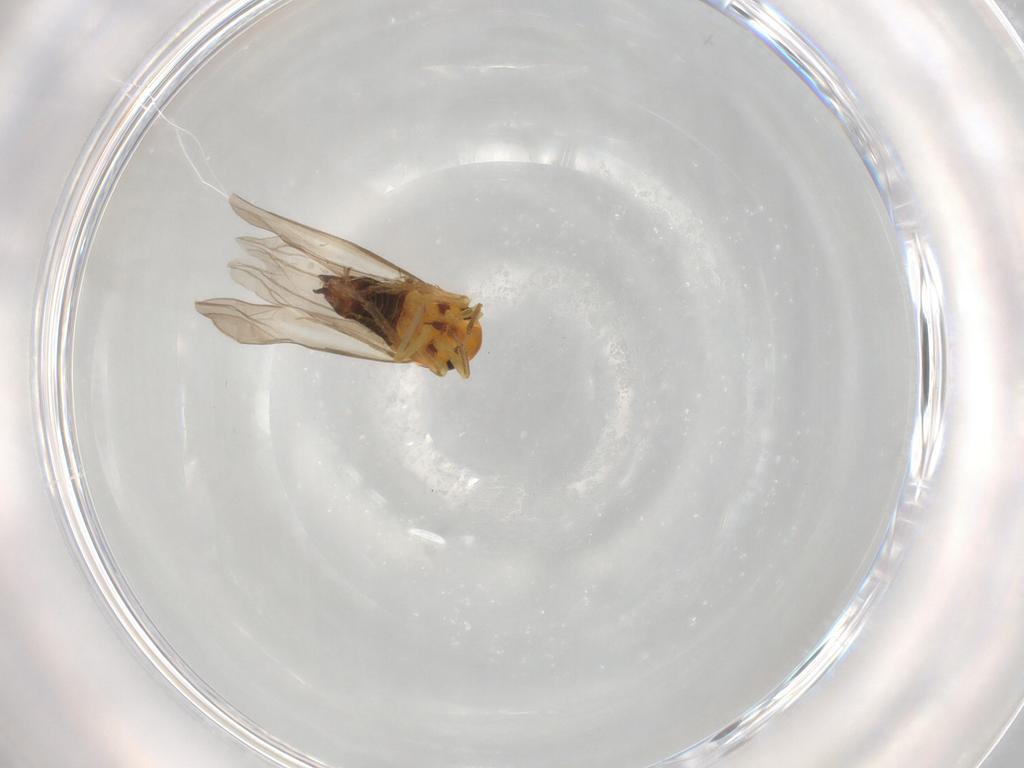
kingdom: Animalia
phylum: Arthropoda
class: Insecta
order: Hemiptera
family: Cicadellidae
